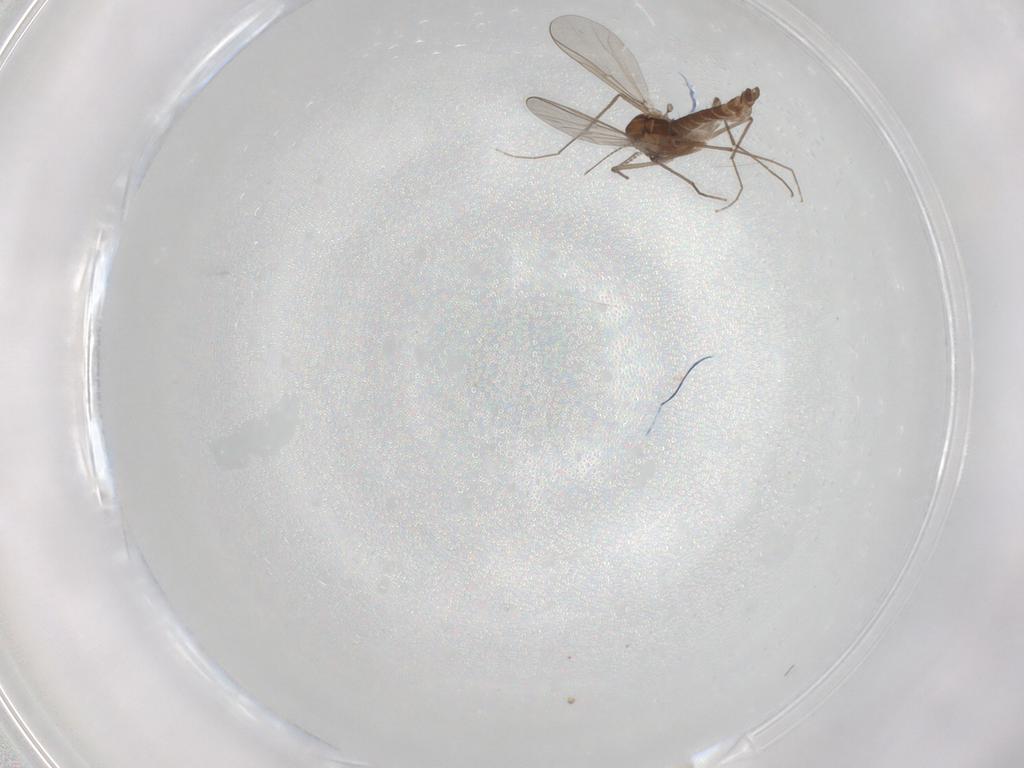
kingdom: Animalia
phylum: Arthropoda
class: Insecta
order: Diptera
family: Chironomidae
